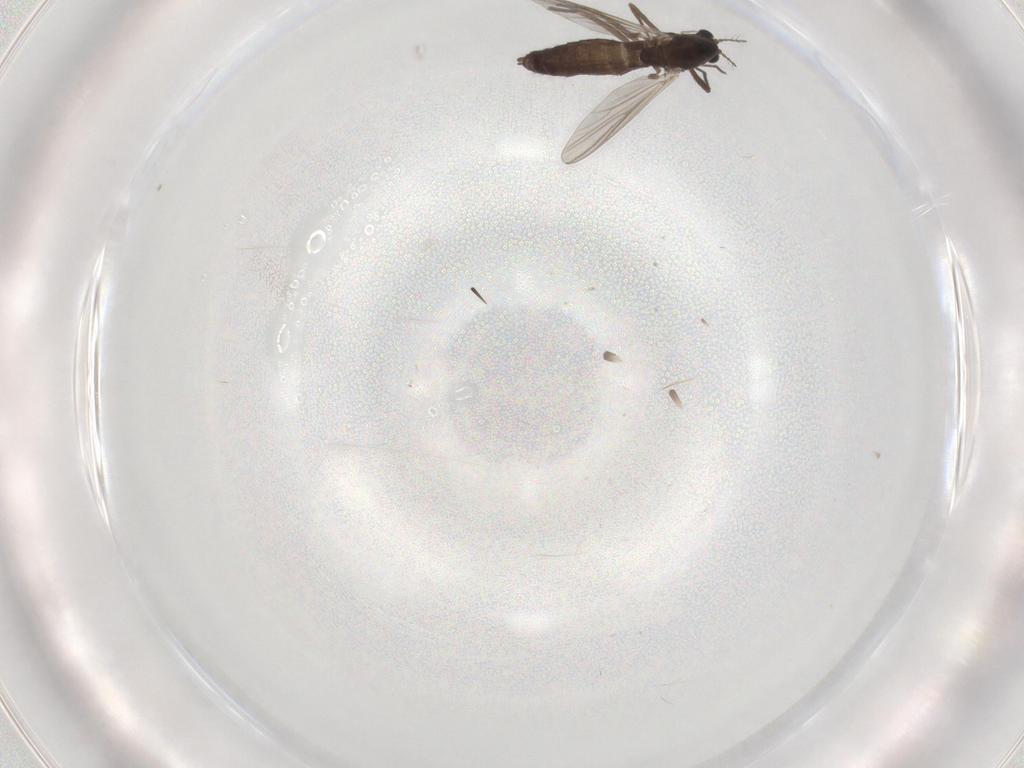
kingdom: Animalia
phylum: Arthropoda
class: Insecta
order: Diptera
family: Chironomidae
